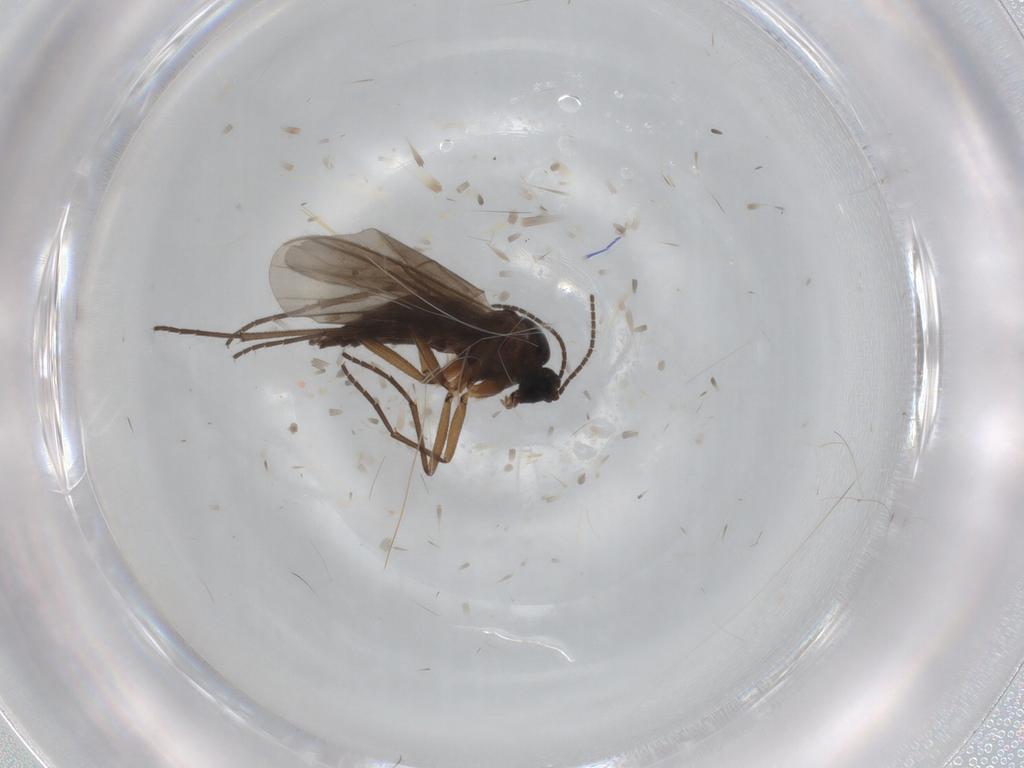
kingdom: Animalia
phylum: Arthropoda
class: Insecta
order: Diptera
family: Sciaridae
